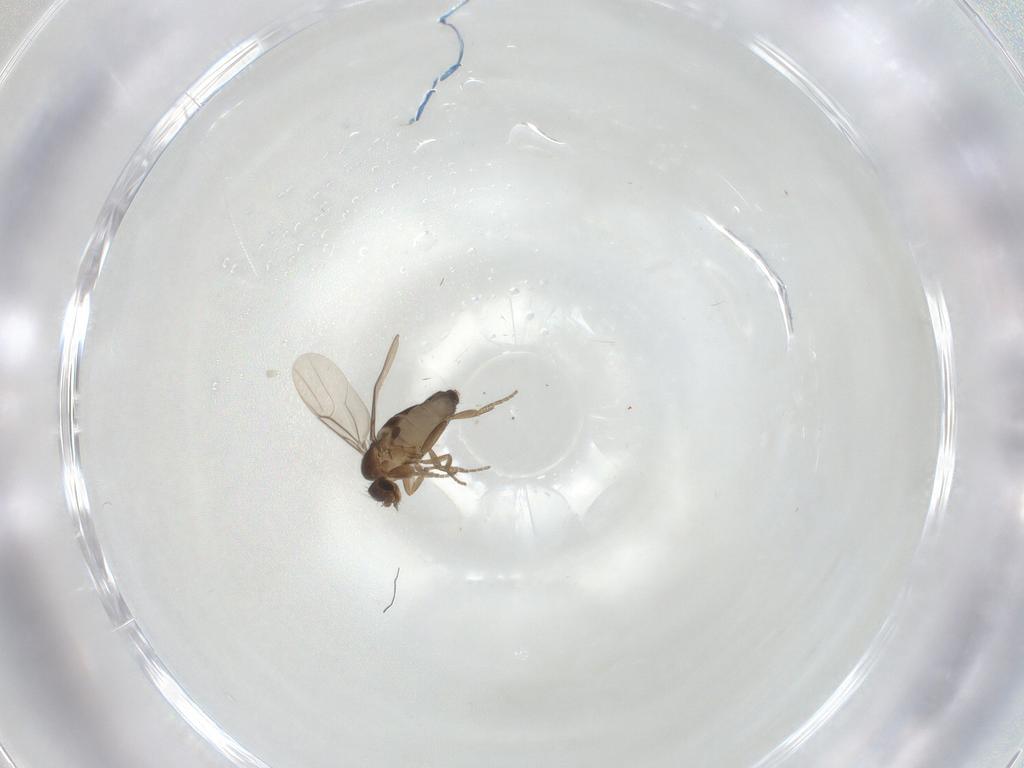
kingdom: Animalia
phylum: Arthropoda
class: Insecta
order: Diptera
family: Phoridae
